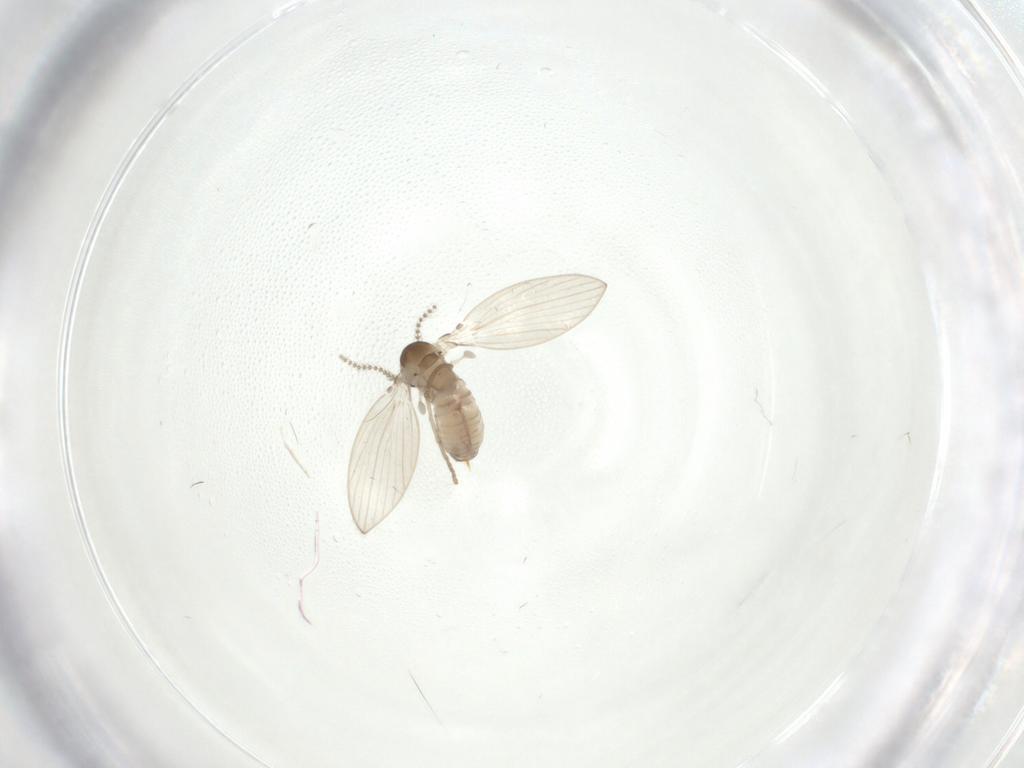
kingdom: Animalia
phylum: Arthropoda
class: Insecta
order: Diptera
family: Psychodidae
